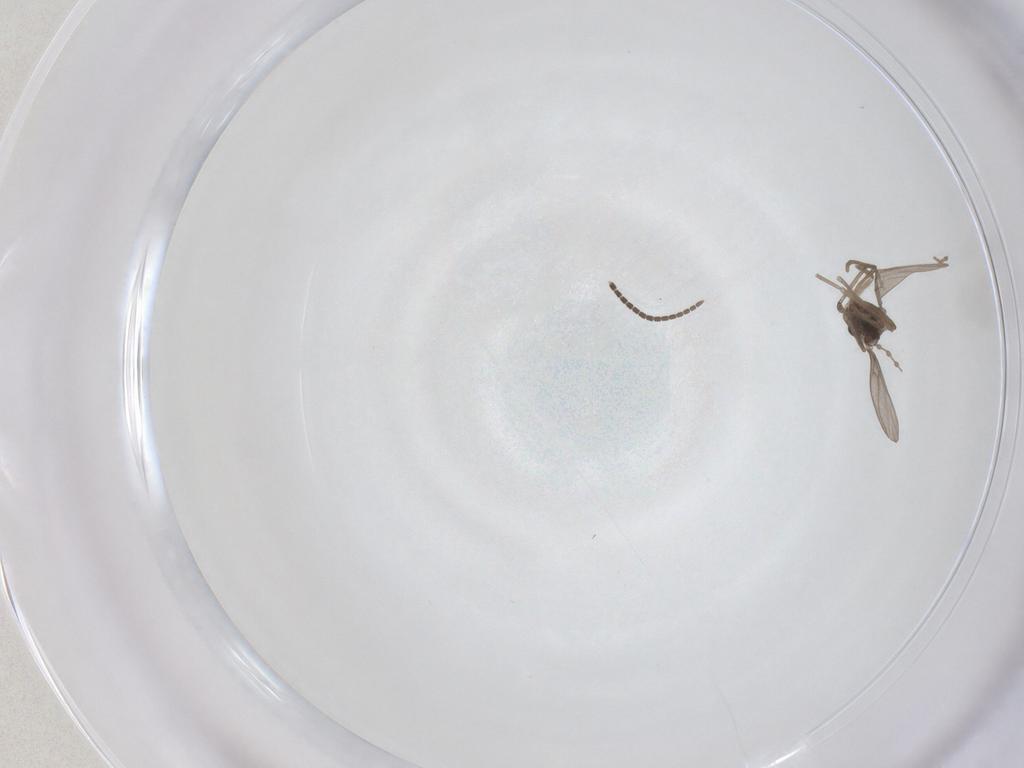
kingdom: Animalia
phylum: Arthropoda
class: Insecta
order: Diptera
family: Cecidomyiidae
